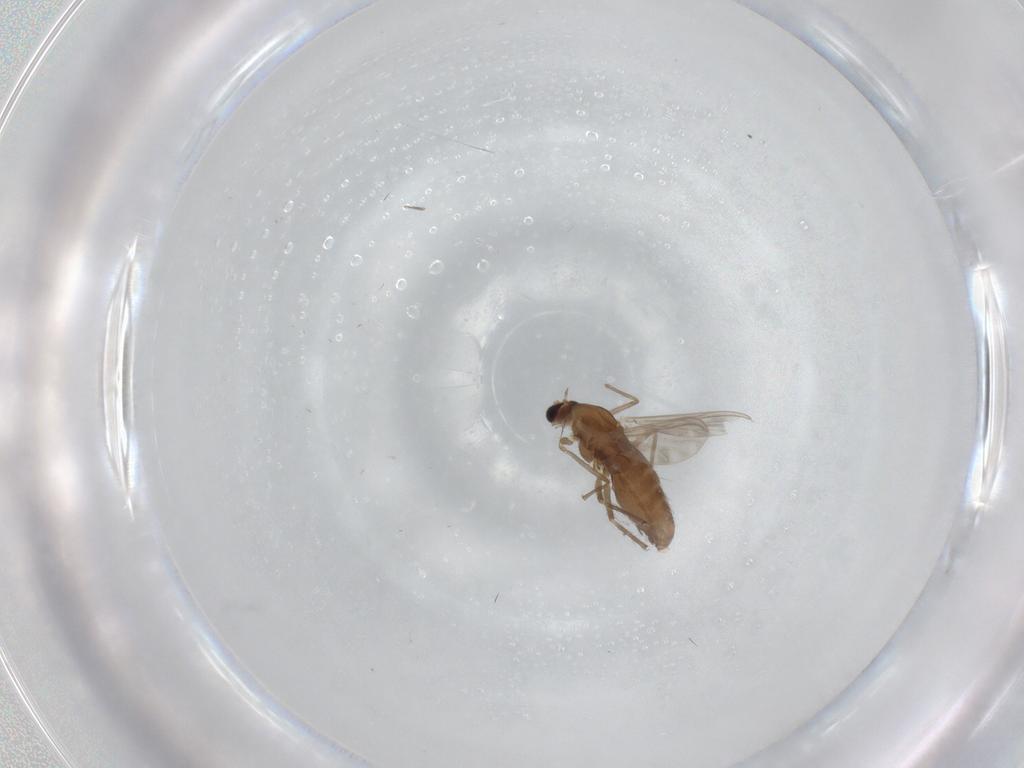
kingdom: Animalia
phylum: Arthropoda
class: Insecta
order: Diptera
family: Chironomidae
